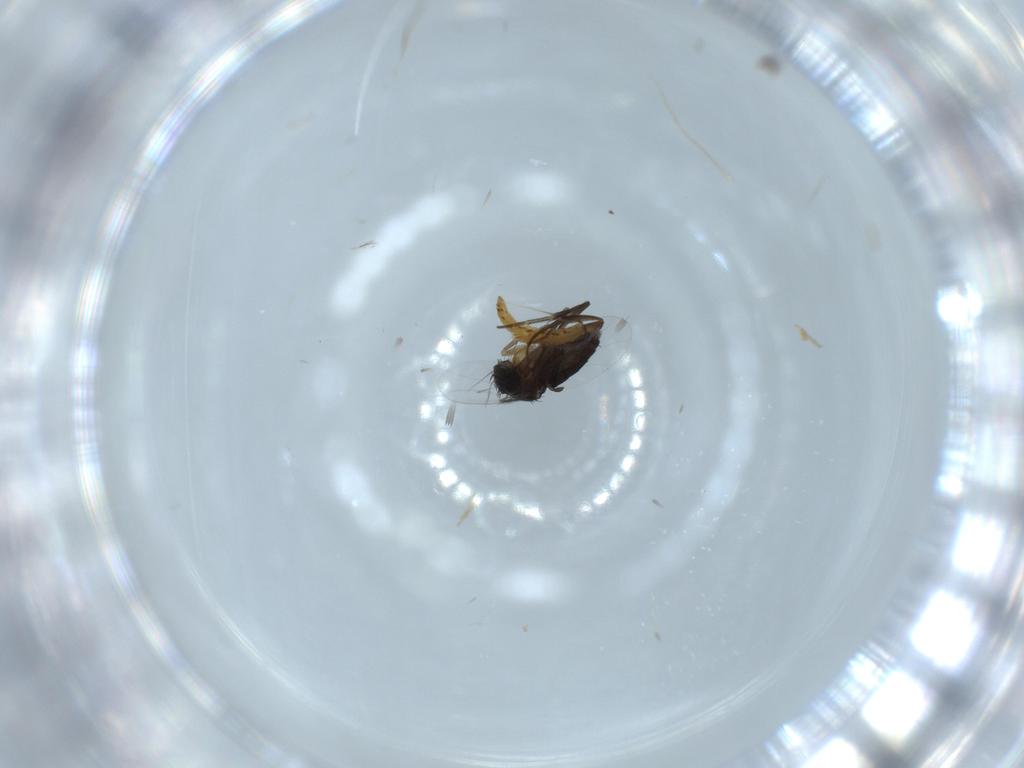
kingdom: Animalia
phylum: Arthropoda
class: Insecta
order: Diptera
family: Phoridae
